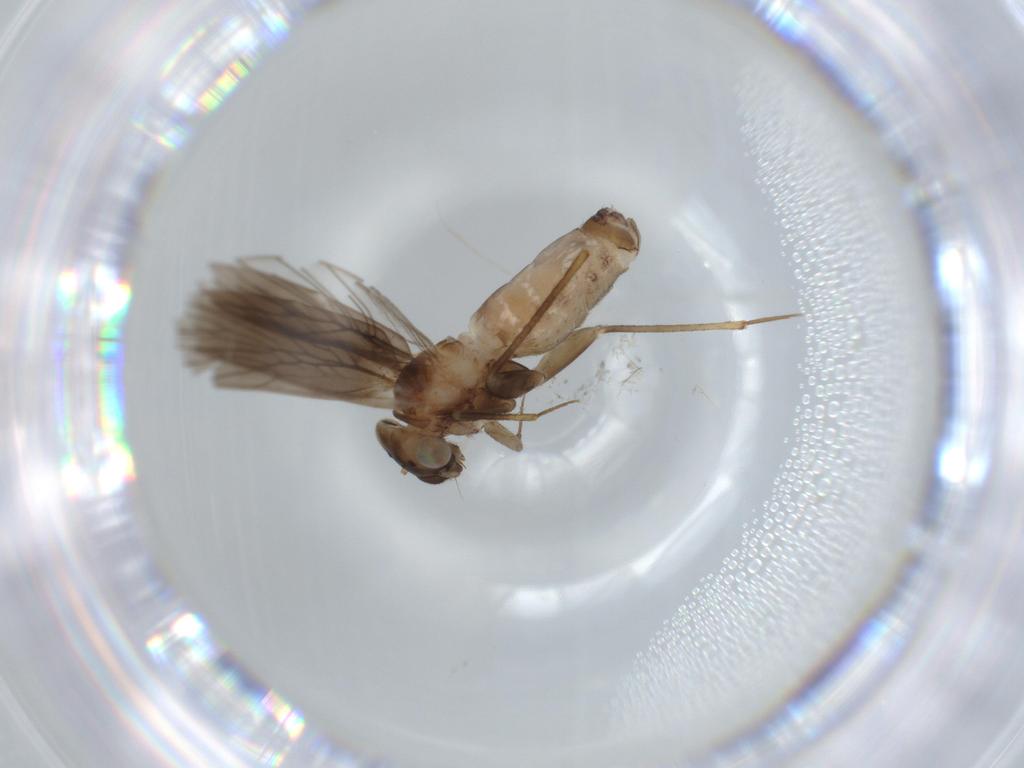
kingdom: Animalia
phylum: Arthropoda
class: Insecta
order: Psocodea
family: Lepidopsocidae
